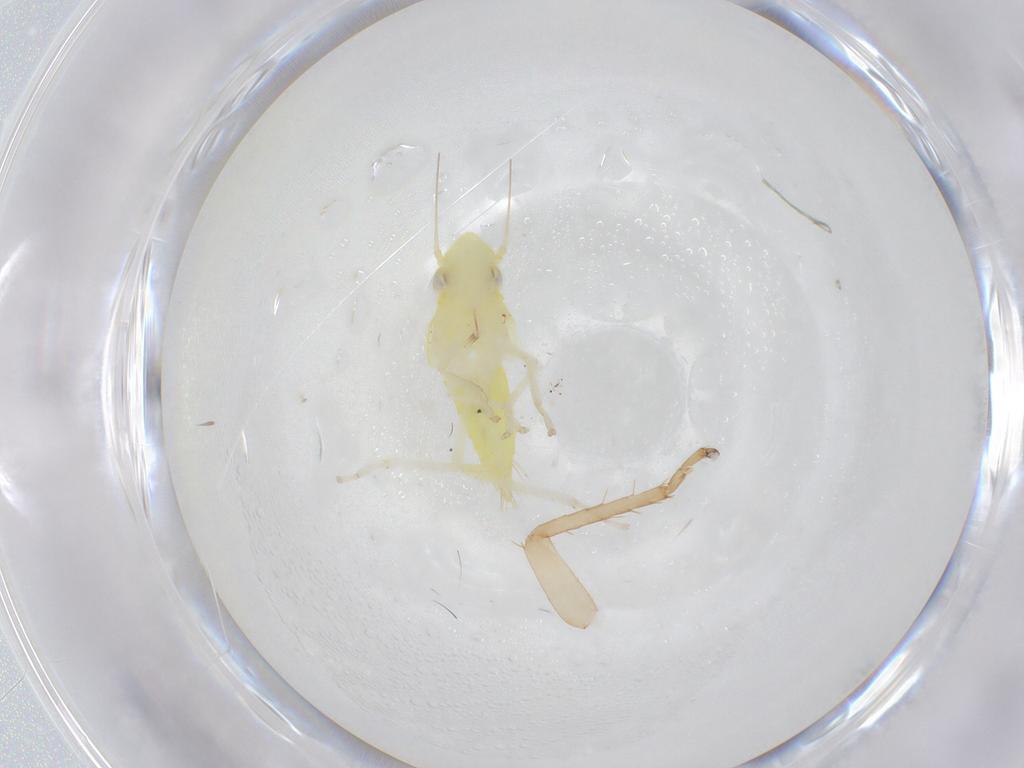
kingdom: Animalia
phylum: Arthropoda
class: Insecta
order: Hemiptera
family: Cicadellidae
